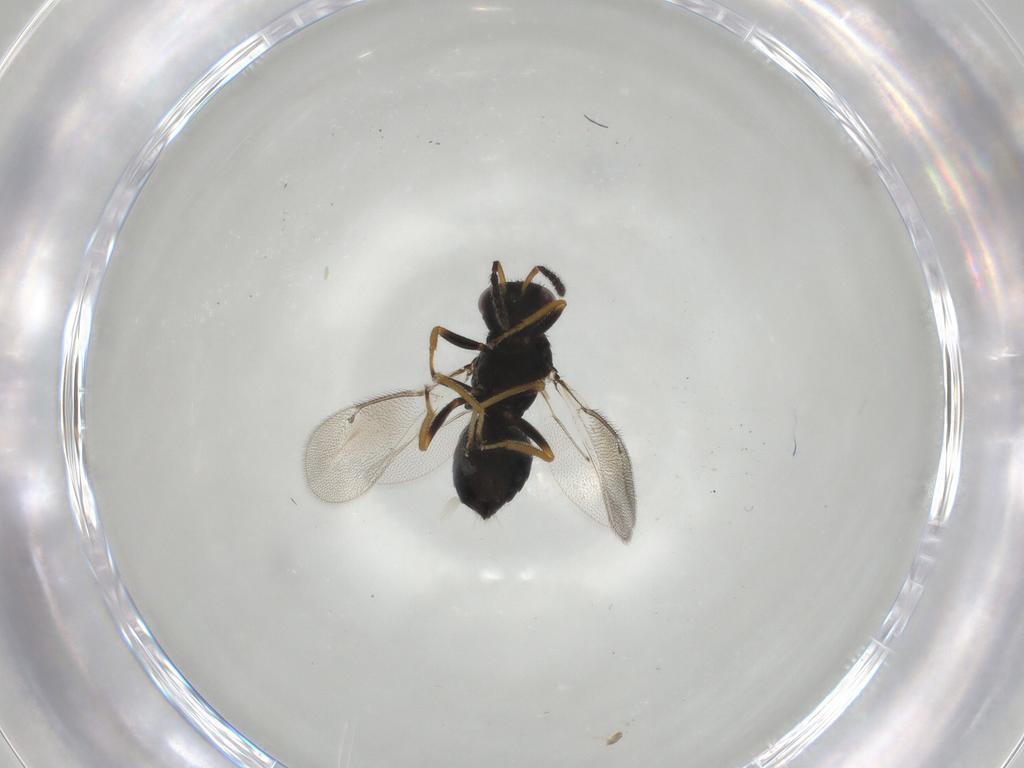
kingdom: Animalia
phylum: Arthropoda
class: Insecta
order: Hymenoptera
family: Eulophidae
